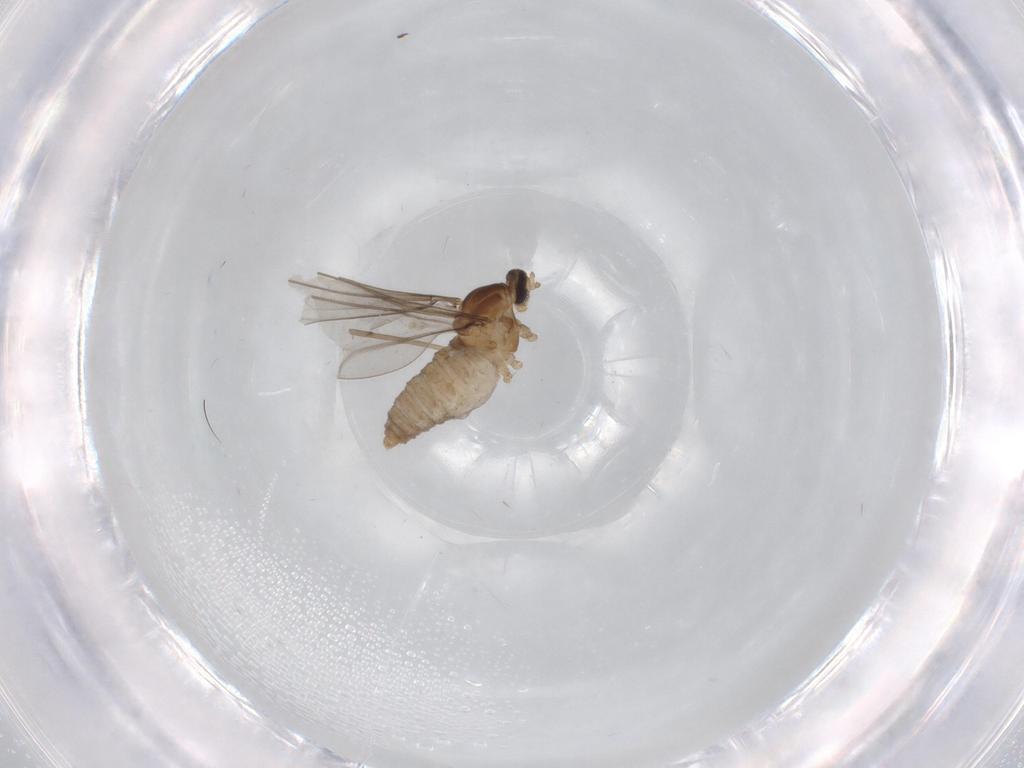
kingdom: Animalia
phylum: Arthropoda
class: Insecta
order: Diptera
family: Cecidomyiidae
